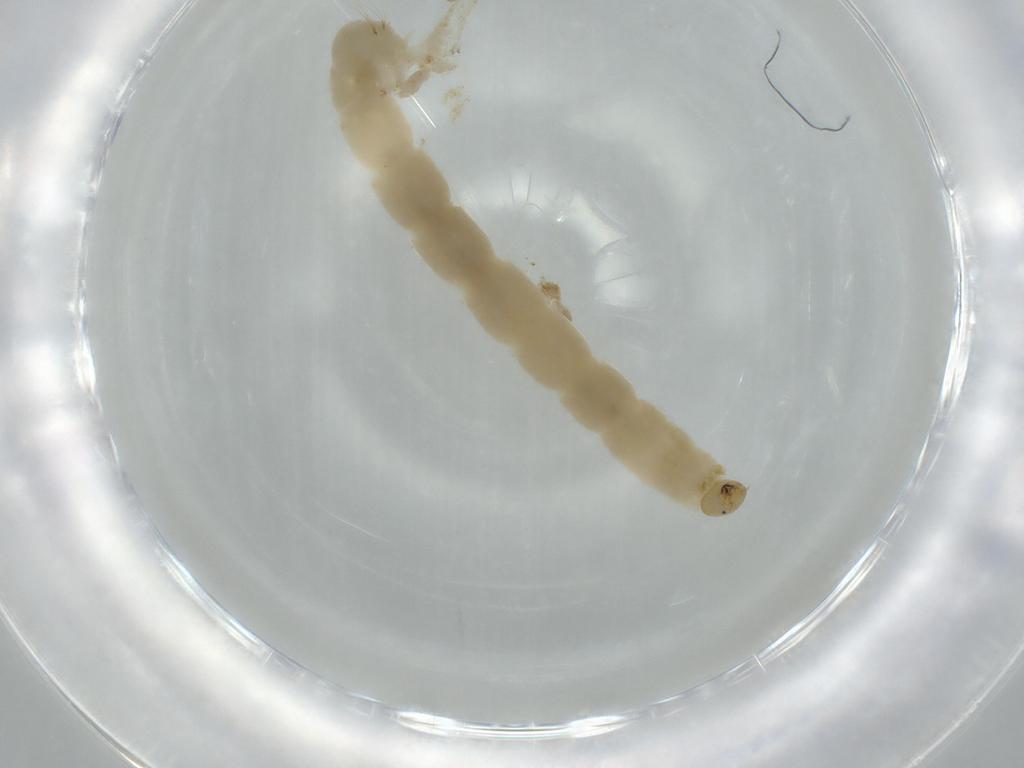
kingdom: Animalia
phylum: Arthropoda
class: Insecta
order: Diptera
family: Chironomidae
